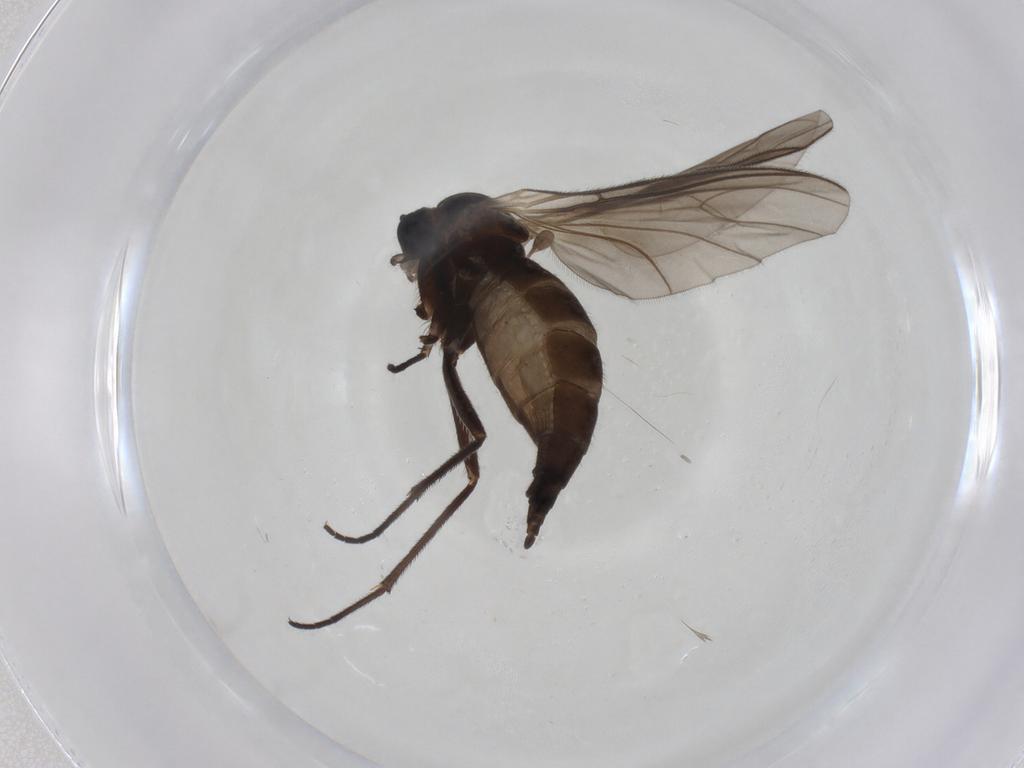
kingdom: Animalia
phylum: Arthropoda
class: Insecta
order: Diptera
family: Sciaridae
